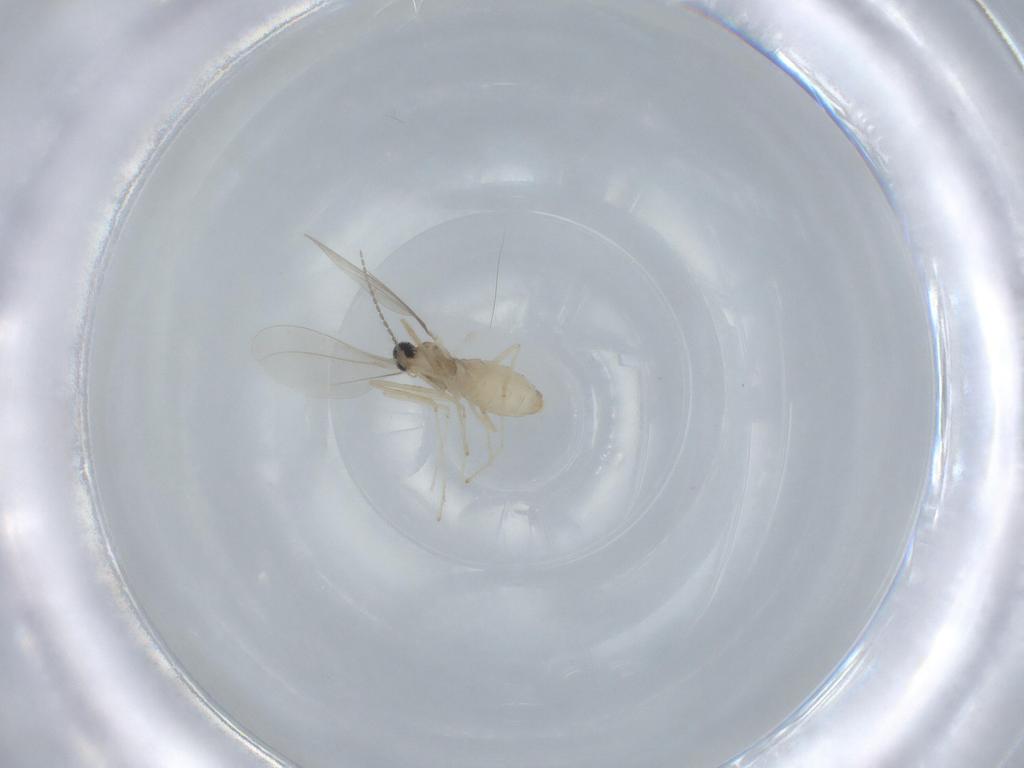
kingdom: Animalia
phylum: Arthropoda
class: Insecta
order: Diptera
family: Cecidomyiidae
